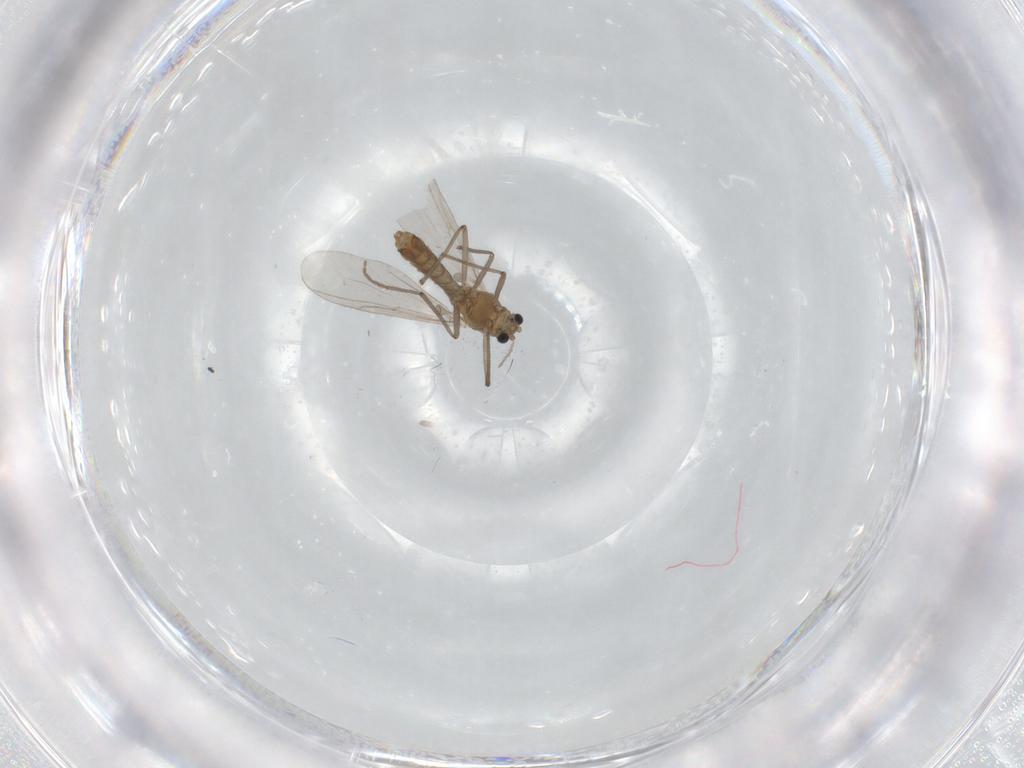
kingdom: Animalia
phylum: Arthropoda
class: Insecta
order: Diptera
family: Chironomidae
